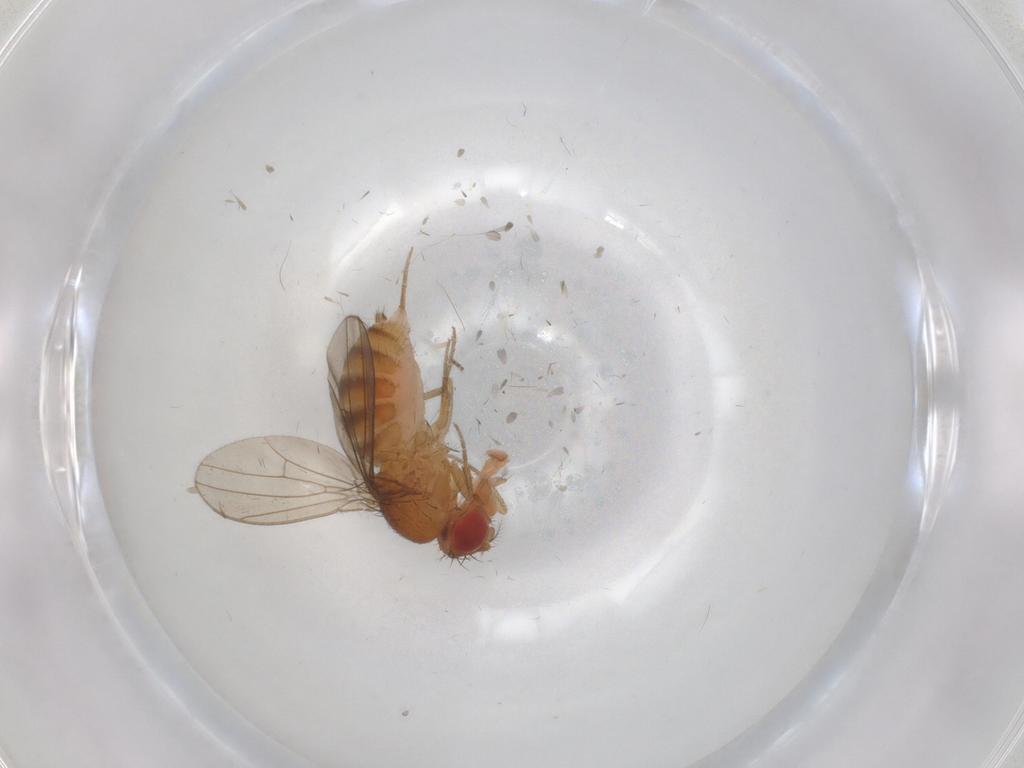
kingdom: Animalia
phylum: Arthropoda
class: Insecta
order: Diptera
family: Drosophilidae
